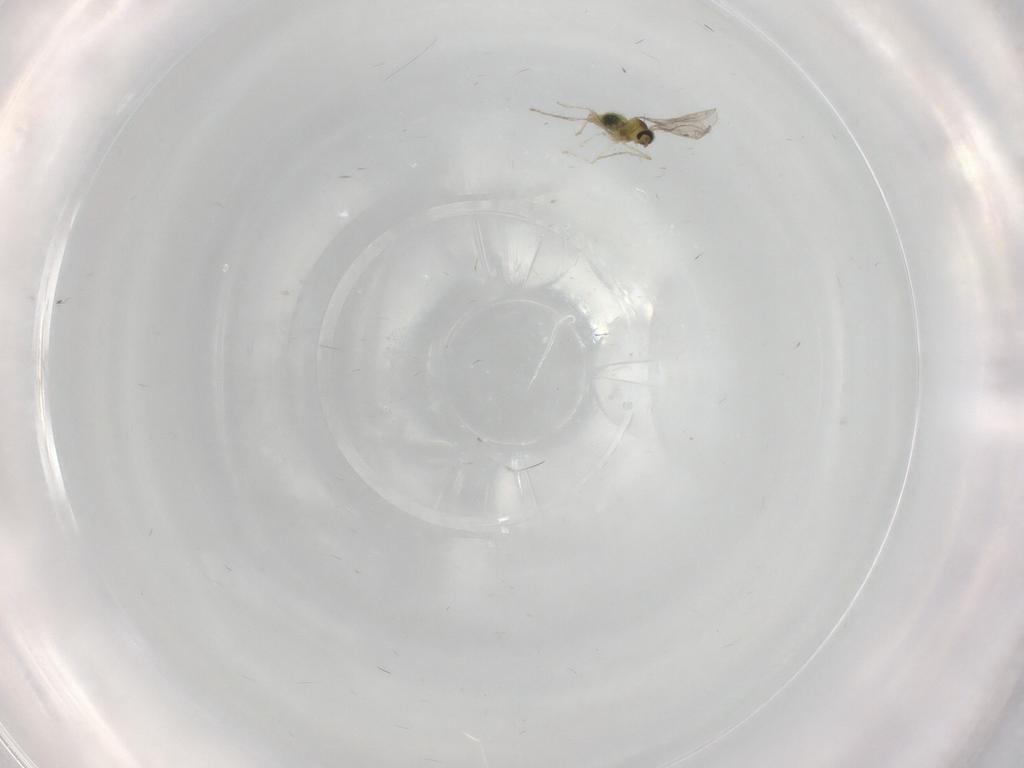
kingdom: Animalia
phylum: Arthropoda
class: Insecta
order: Diptera
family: Cecidomyiidae
